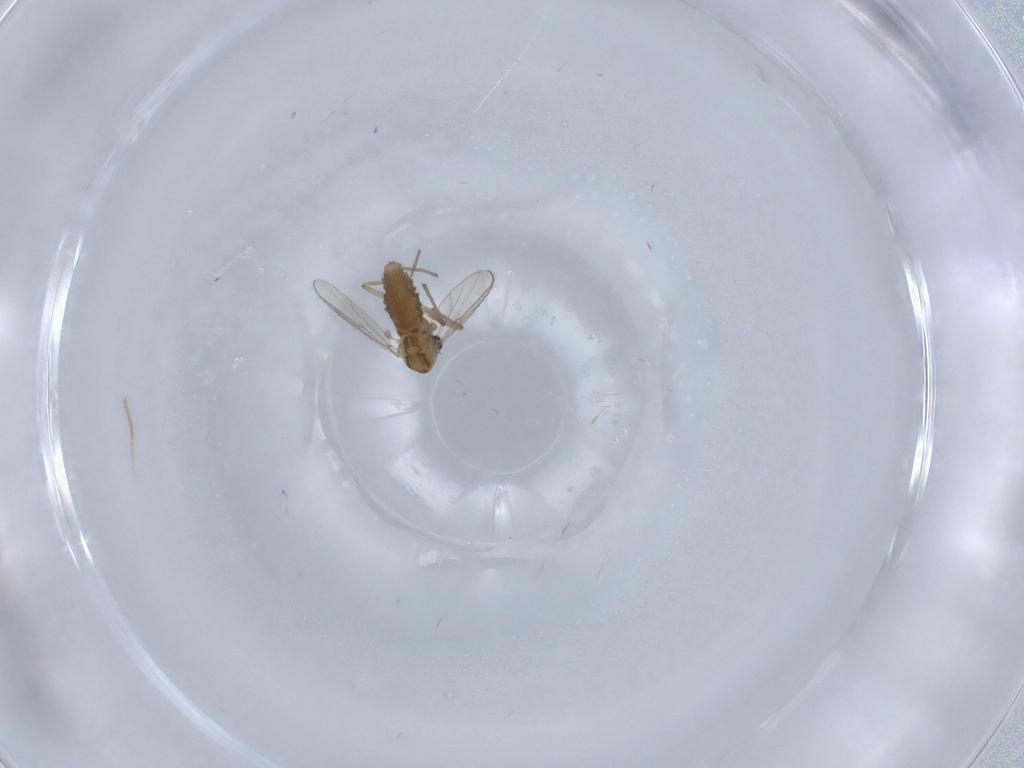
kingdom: Animalia
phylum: Arthropoda
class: Insecta
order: Diptera
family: Chironomidae
